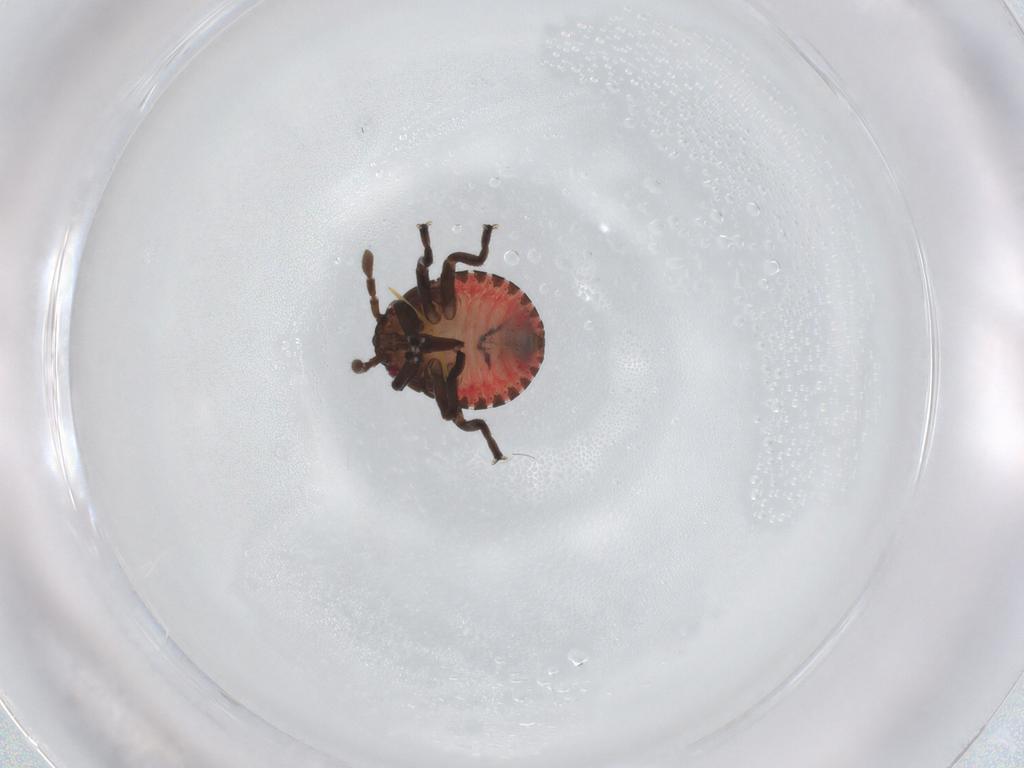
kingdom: Animalia
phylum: Arthropoda
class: Insecta
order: Hemiptera
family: Pentatomidae
